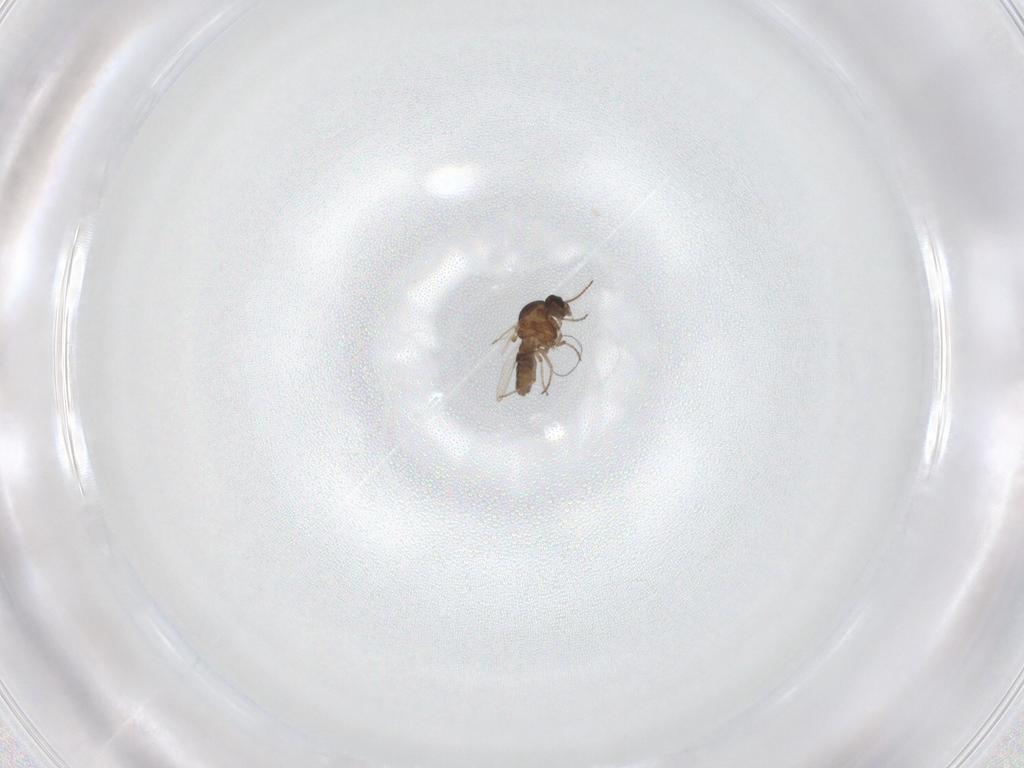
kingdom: Animalia
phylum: Arthropoda
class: Insecta
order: Diptera
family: Ceratopogonidae
